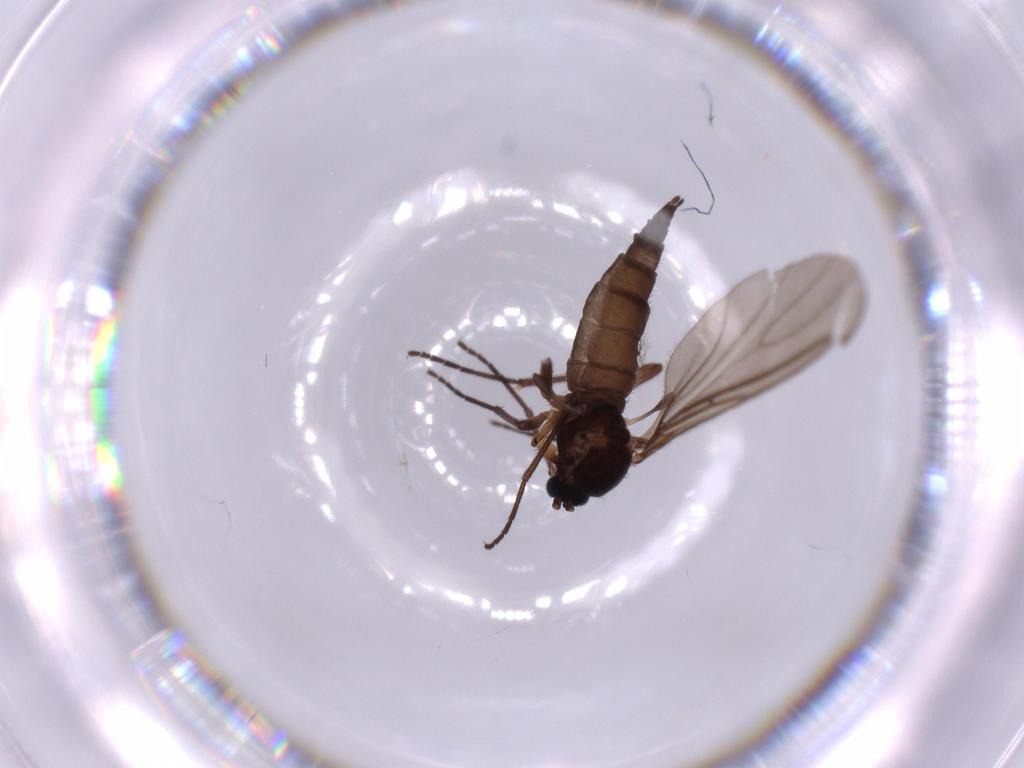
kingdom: Animalia
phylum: Arthropoda
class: Insecta
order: Diptera
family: Sciaridae
